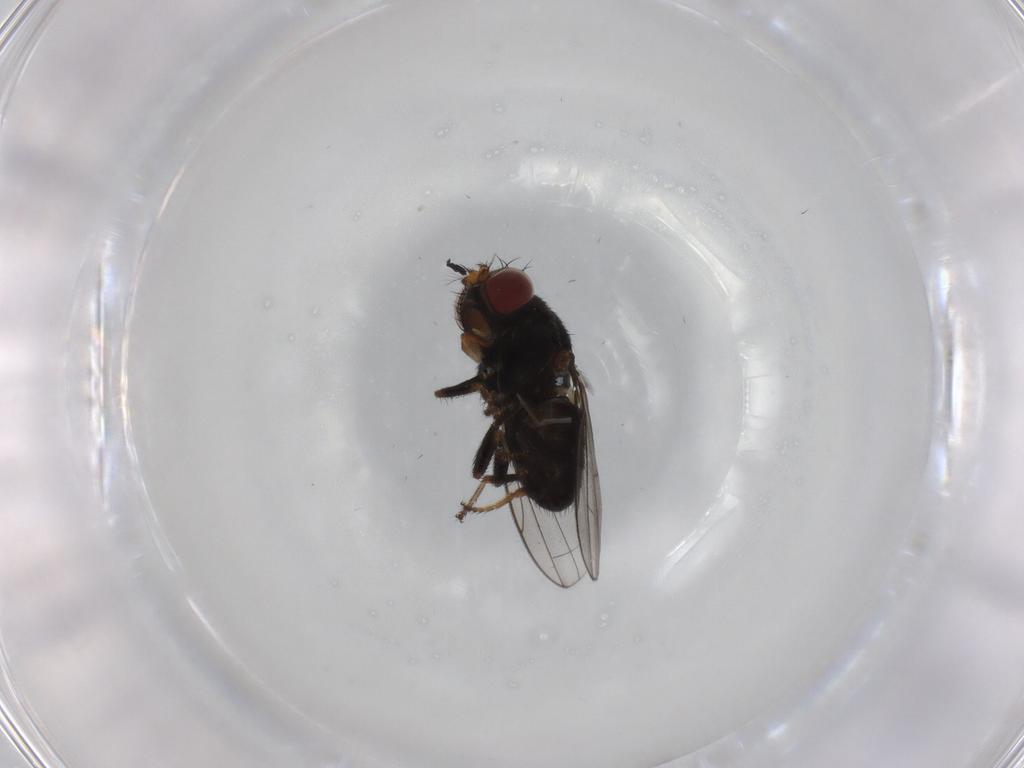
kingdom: Animalia
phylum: Arthropoda
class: Insecta
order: Diptera
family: Ephydridae
